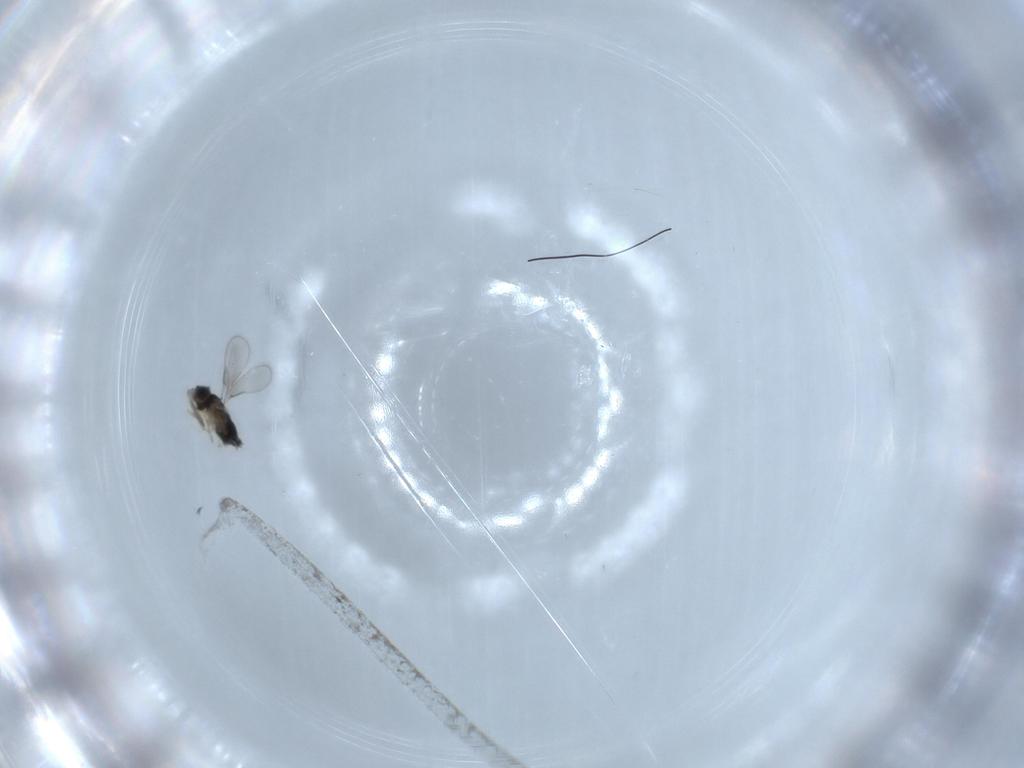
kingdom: Animalia
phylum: Arthropoda
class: Insecta
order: Hymenoptera
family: Aphelinidae
